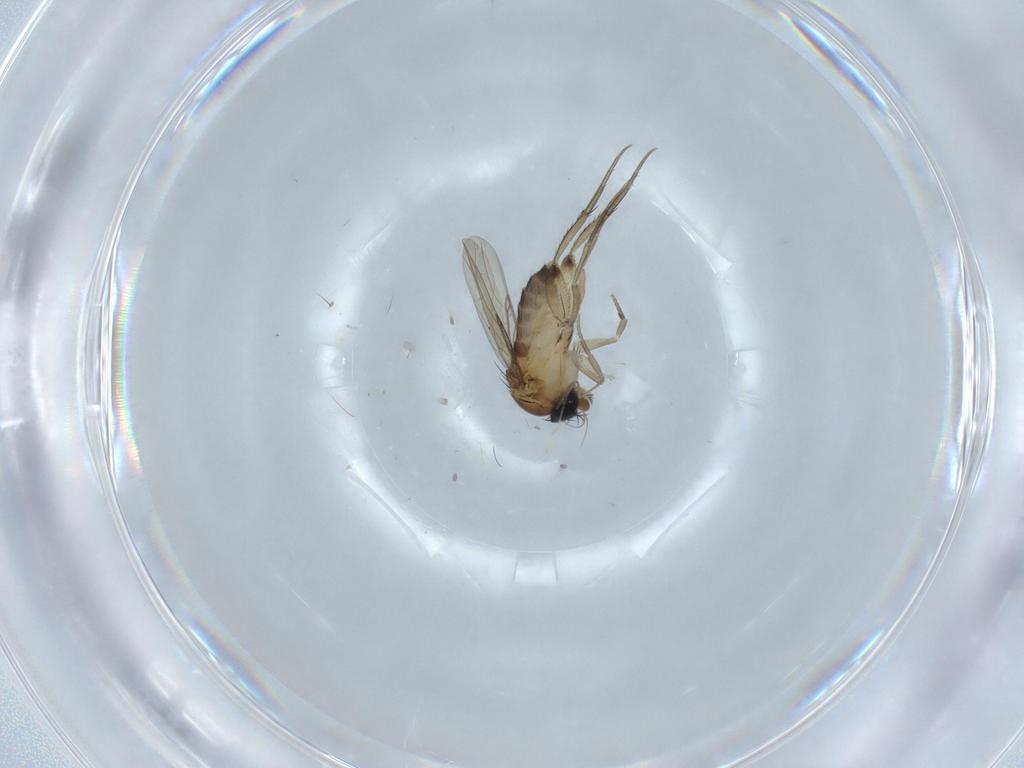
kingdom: Animalia
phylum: Arthropoda
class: Insecta
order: Diptera
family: Phoridae
